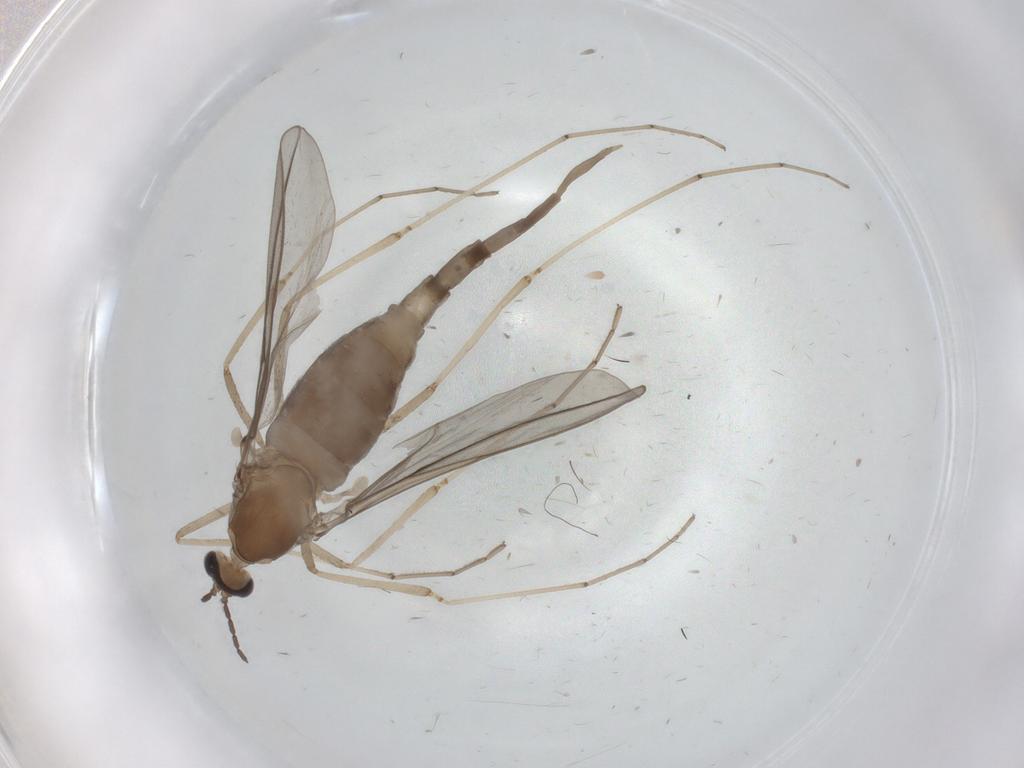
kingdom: Animalia
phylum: Arthropoda
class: Insecta
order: Diptera
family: Cecidomyiidae
